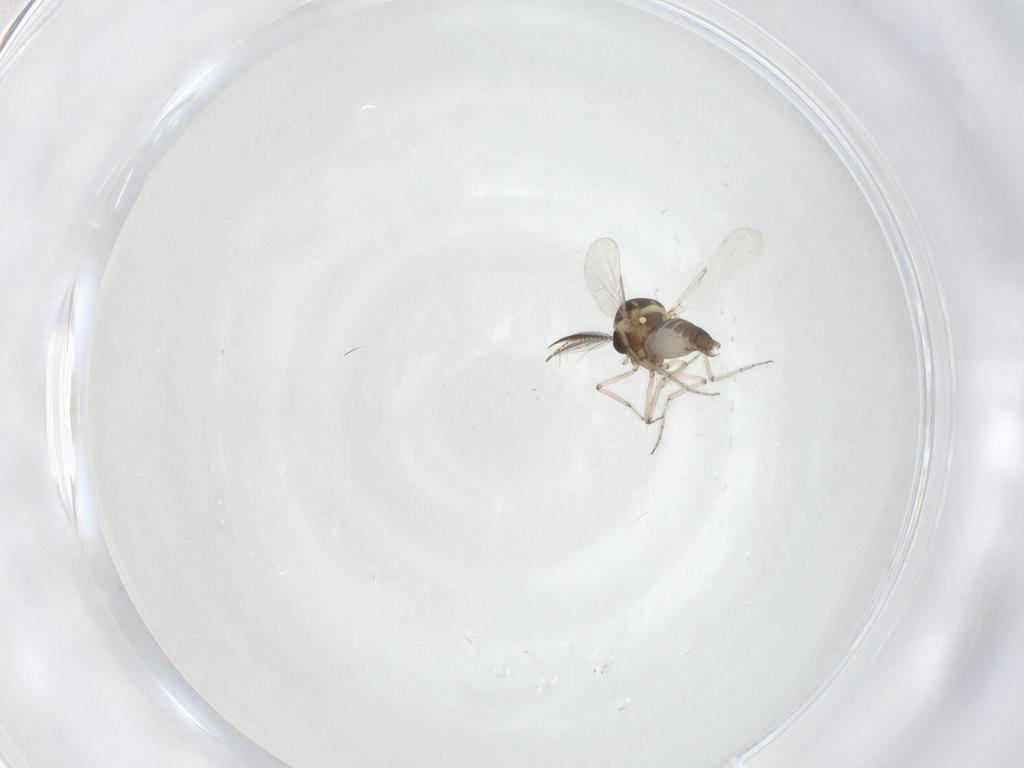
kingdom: Animalia
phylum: Arthropoda
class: Insecta
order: Diptera
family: Ceratopogonidae
